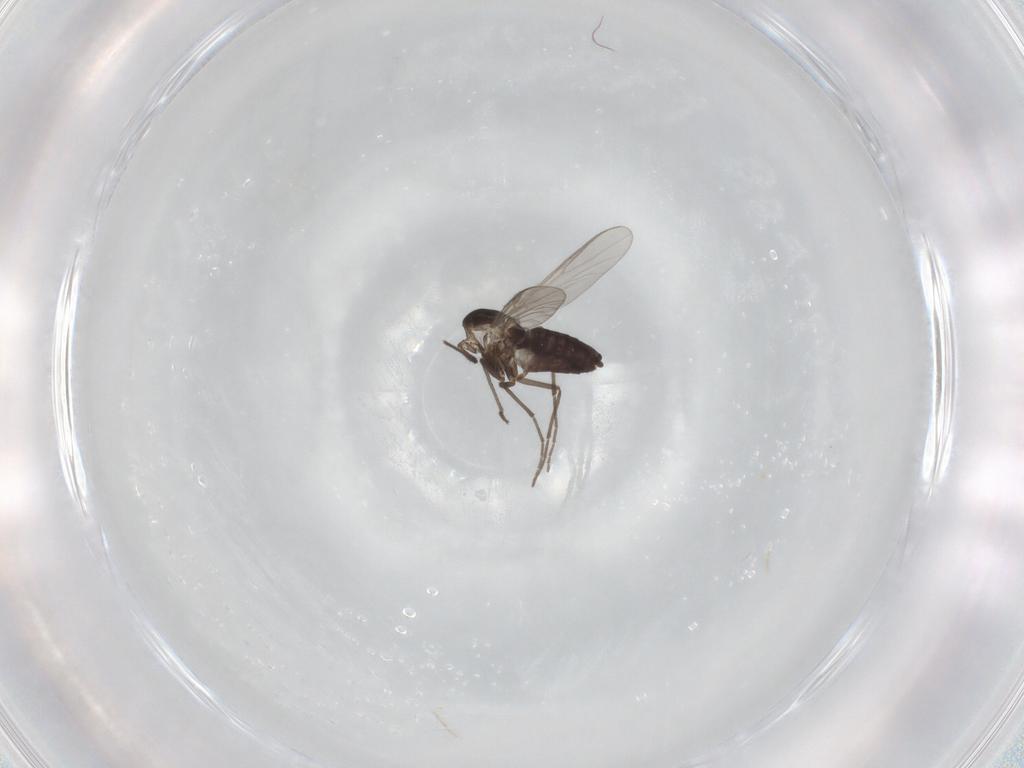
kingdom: Animalia
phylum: Arthropoda
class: Insecta
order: Diptera
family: Chironomidae
